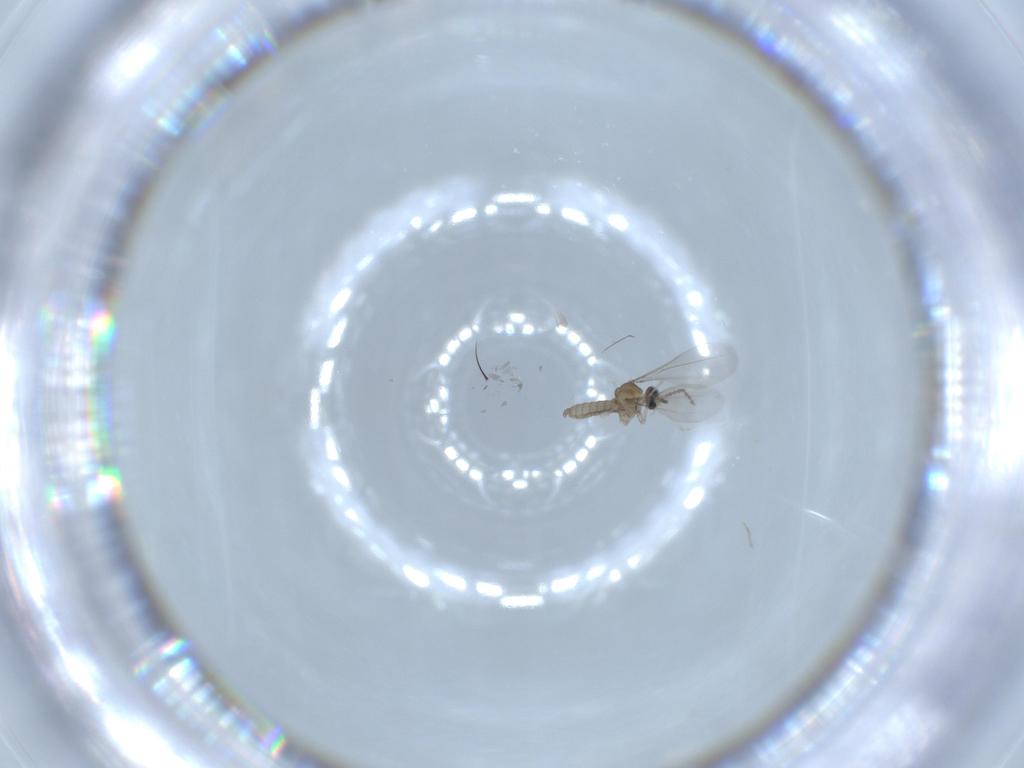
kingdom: Animalia
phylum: Arthropoda
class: Insecta
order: Diptera
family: Cecidomyiidae
